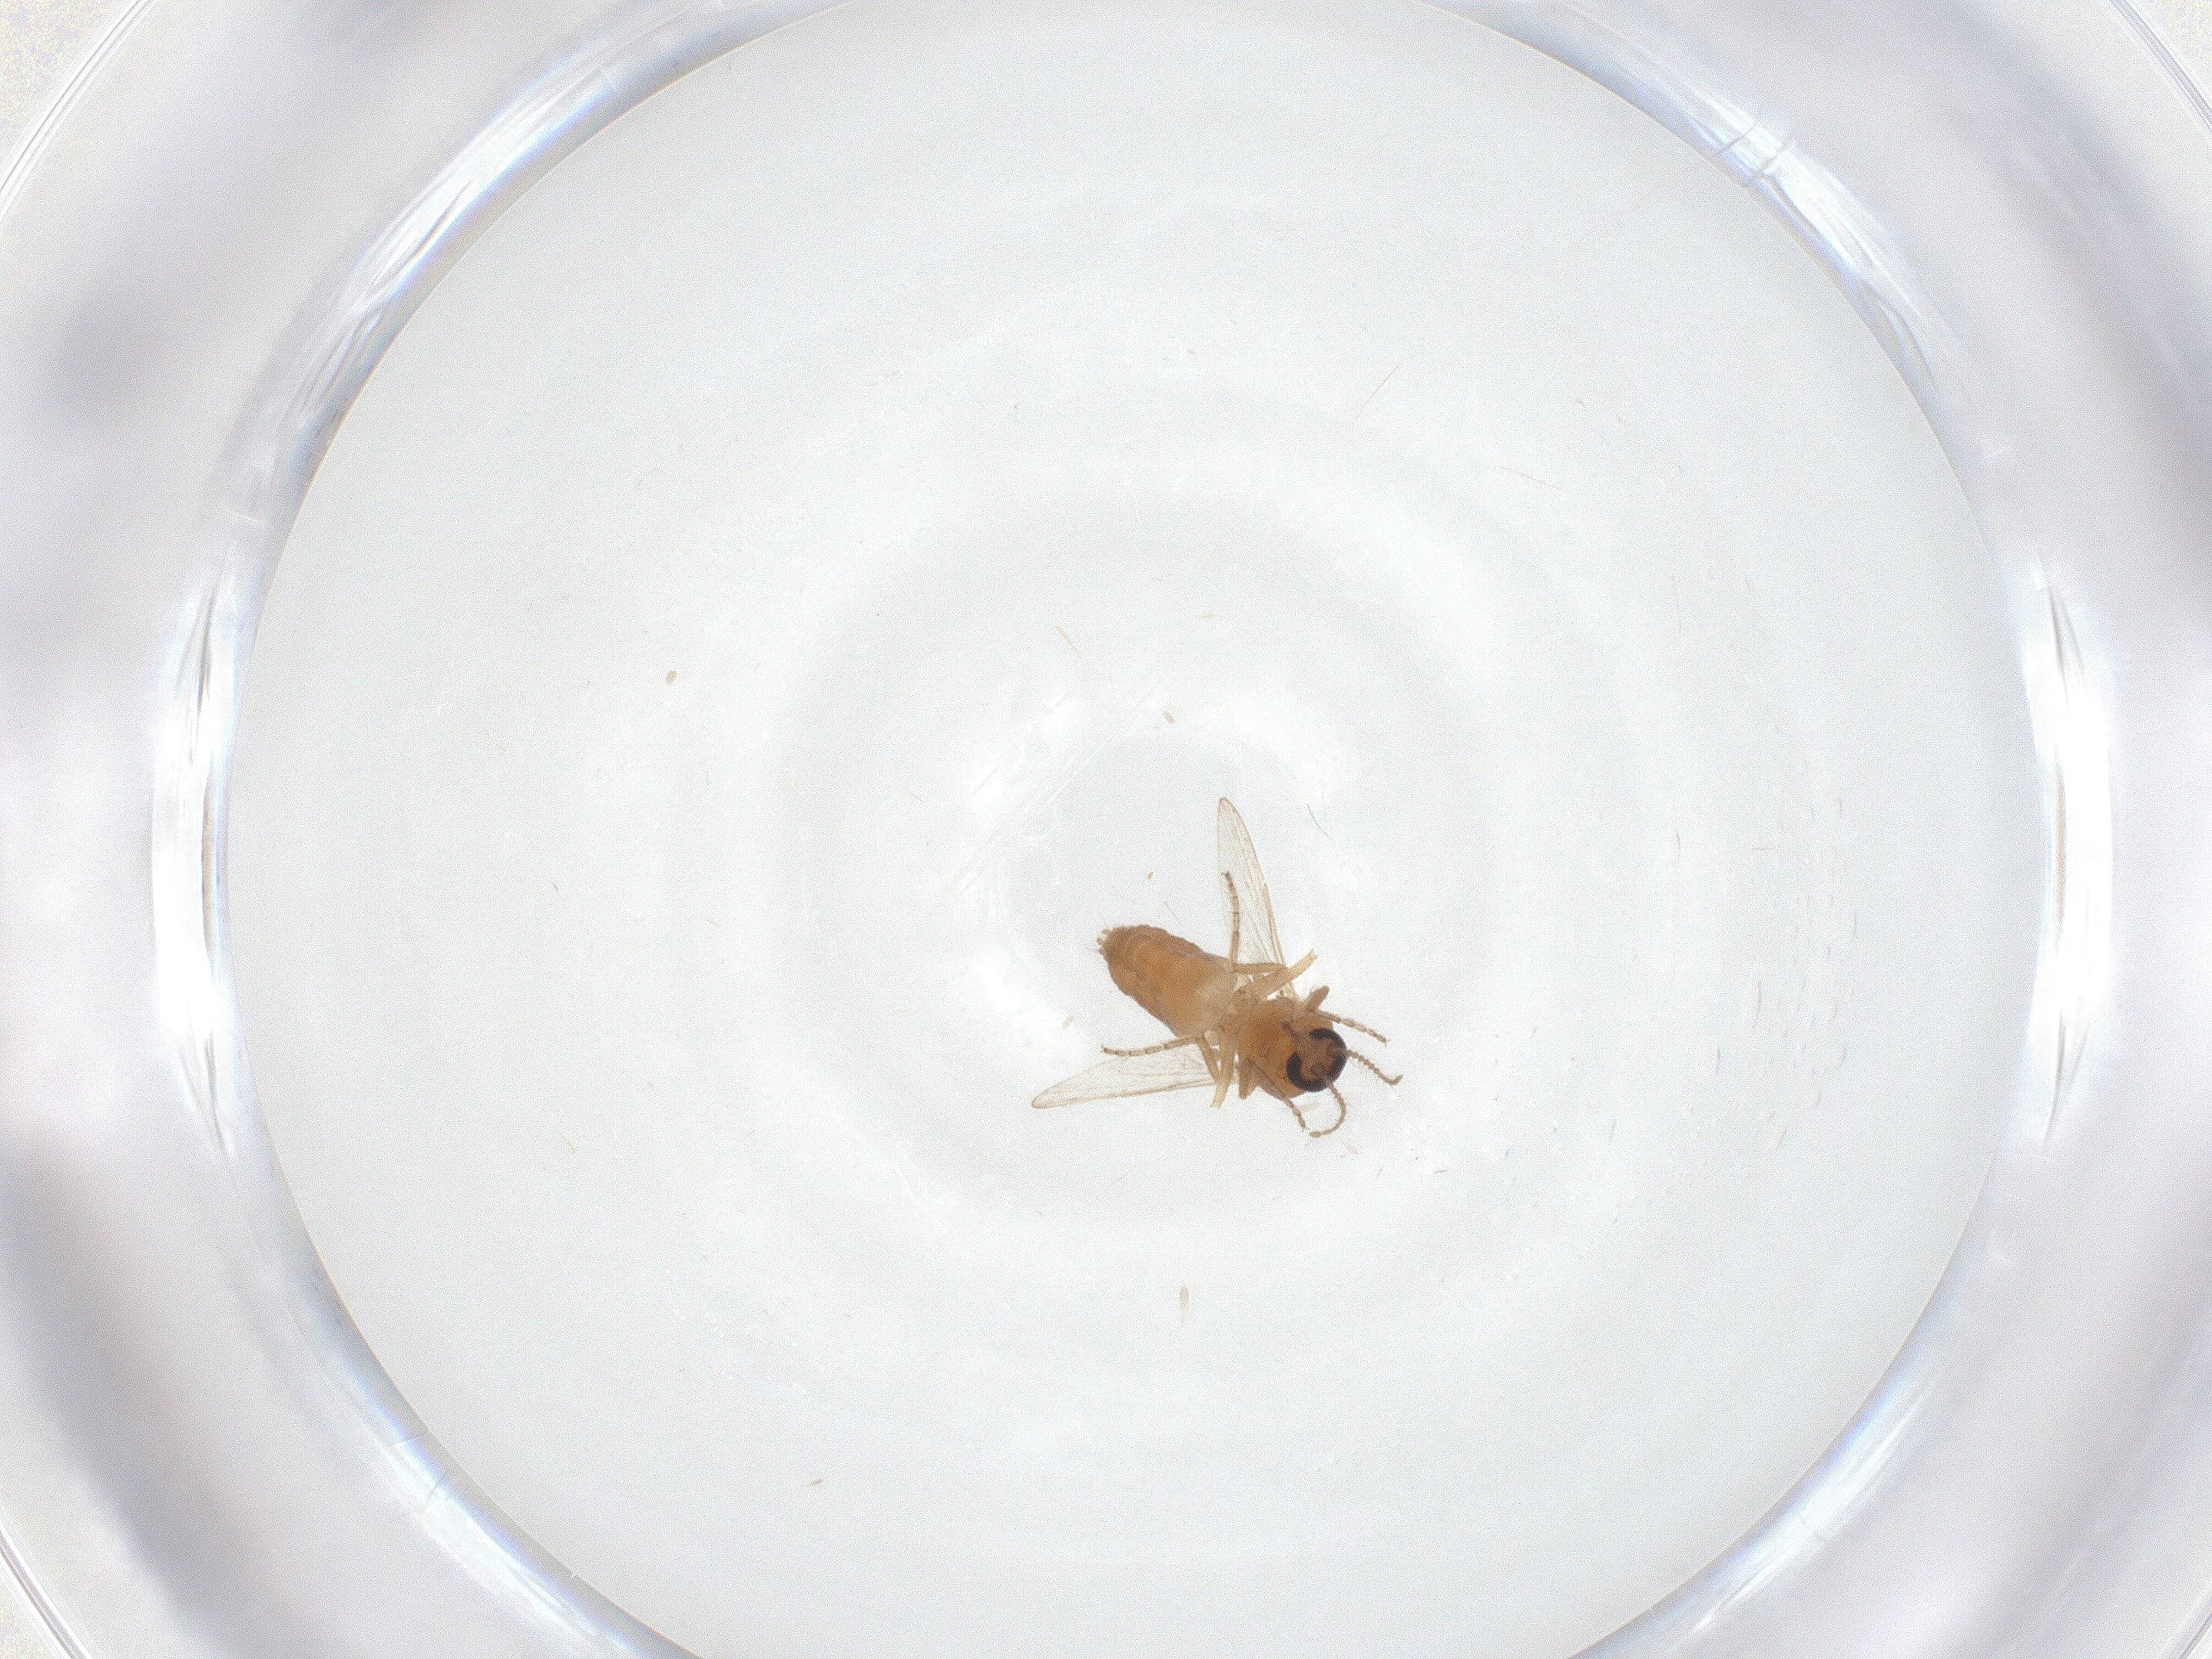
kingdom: Animalia
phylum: Arthropoda
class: Insecta
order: Diptera
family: Ceratopogonidae
